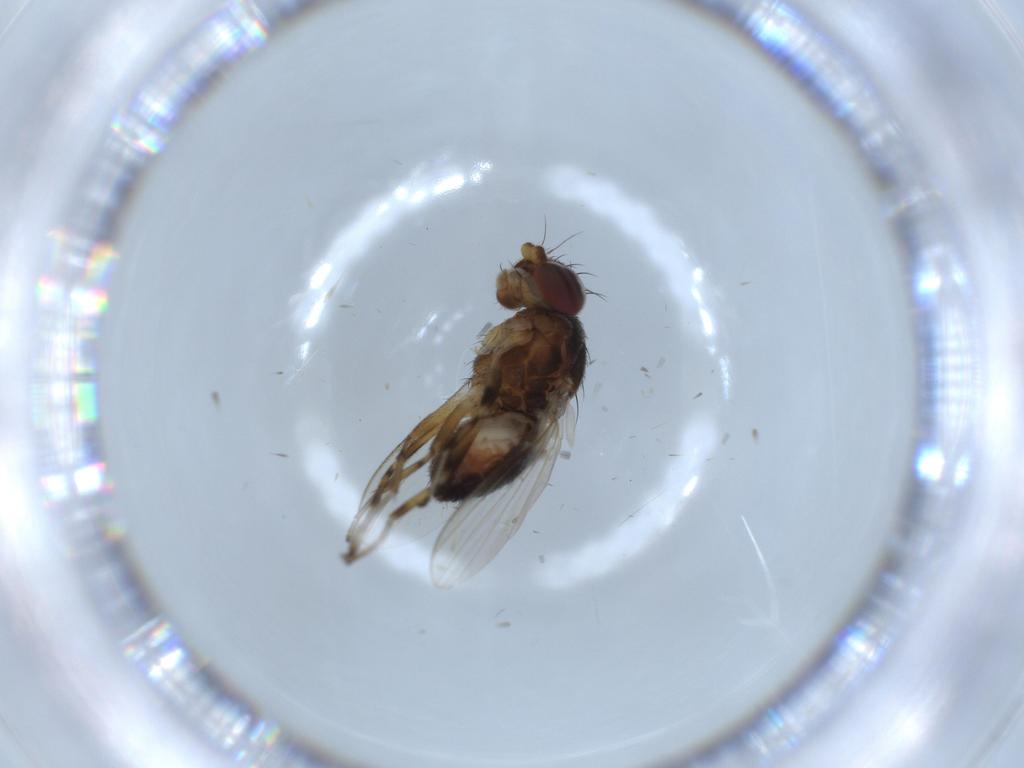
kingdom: Animalia
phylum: Arthropoda
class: Insecta
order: Diptera
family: Heleomyzidae
